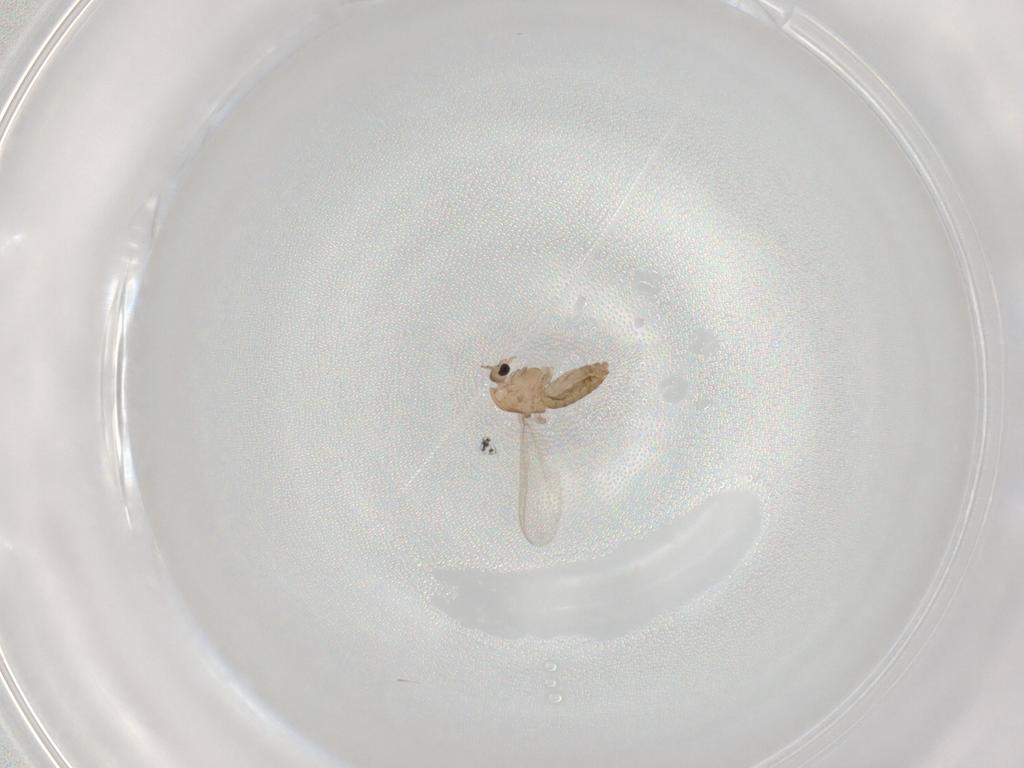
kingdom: Animalia
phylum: Arthropoda
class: Insecta
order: Diptera
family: Chironomidae
